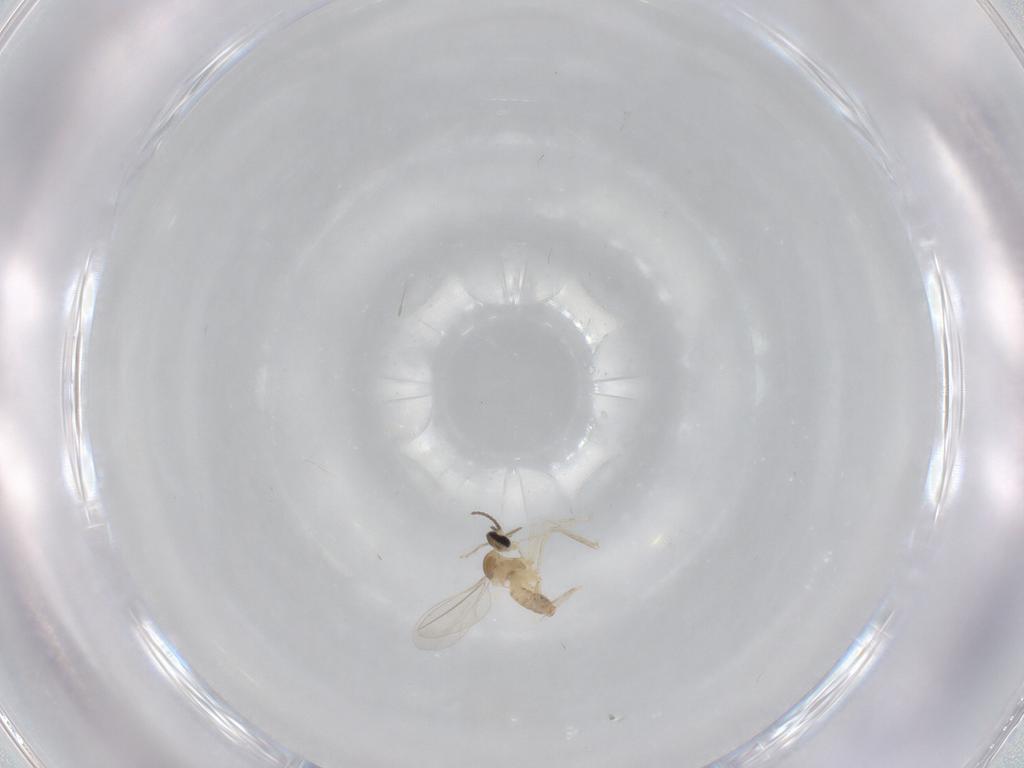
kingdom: Animalia
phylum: Arthropoda
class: Insecta
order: Diptera
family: Cecidomyiidae
